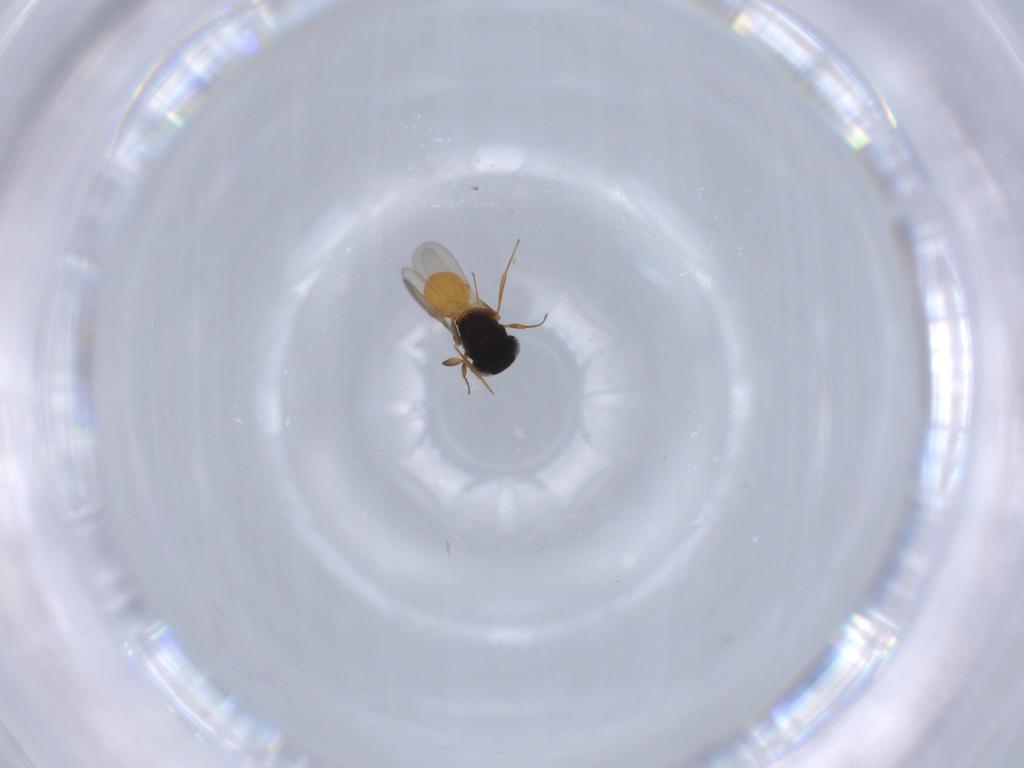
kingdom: Animalia
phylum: Arthropoda
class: Insecta
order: Hymenoptera
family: Scelionidae
